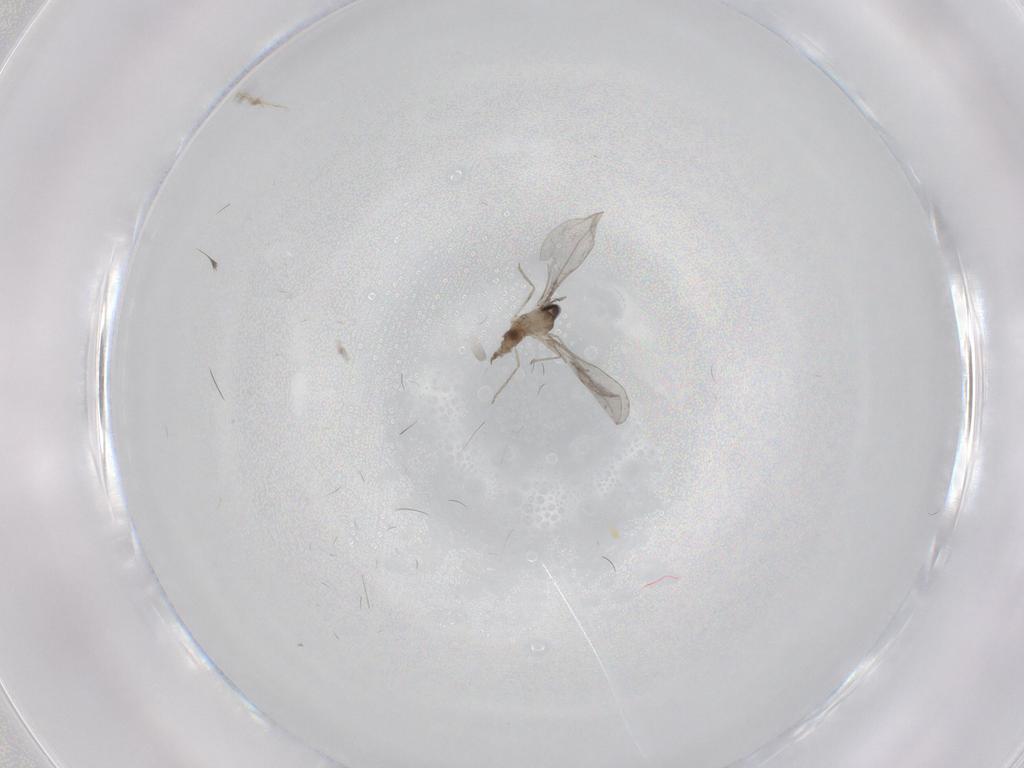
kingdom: Animalia
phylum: Arthropoda
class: Insecta
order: Diptera
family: Cecidomyiidae
